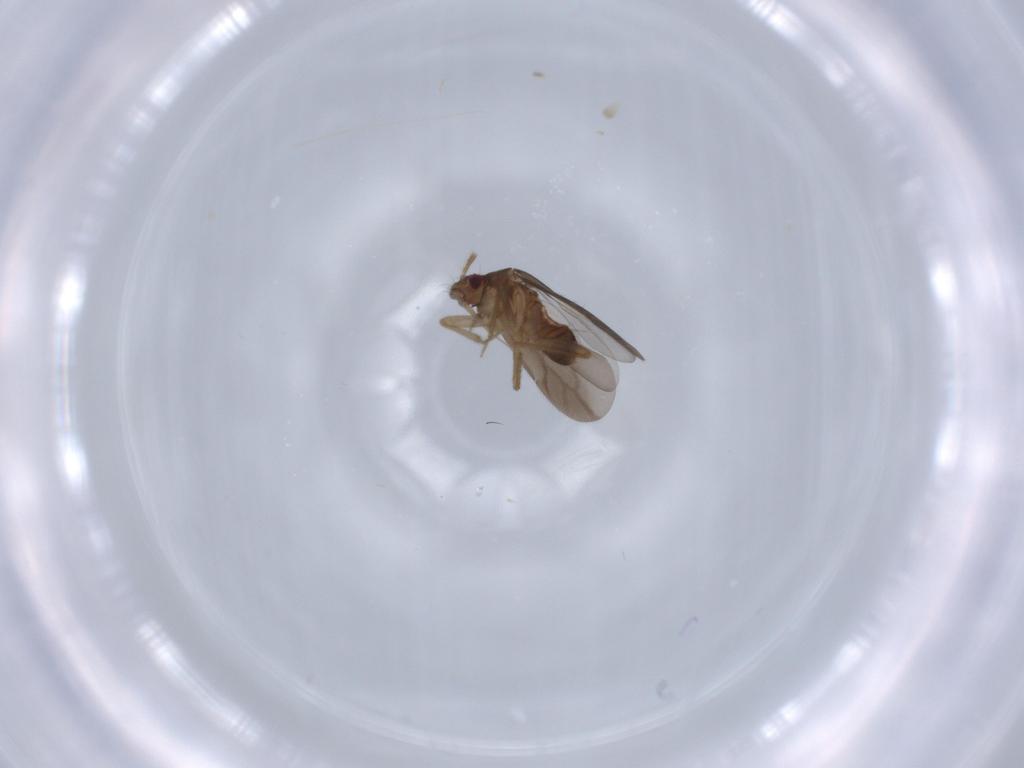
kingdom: Animalia
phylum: Arthropoda
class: Insecta
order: Hemiptera
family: Ceratocombidae
